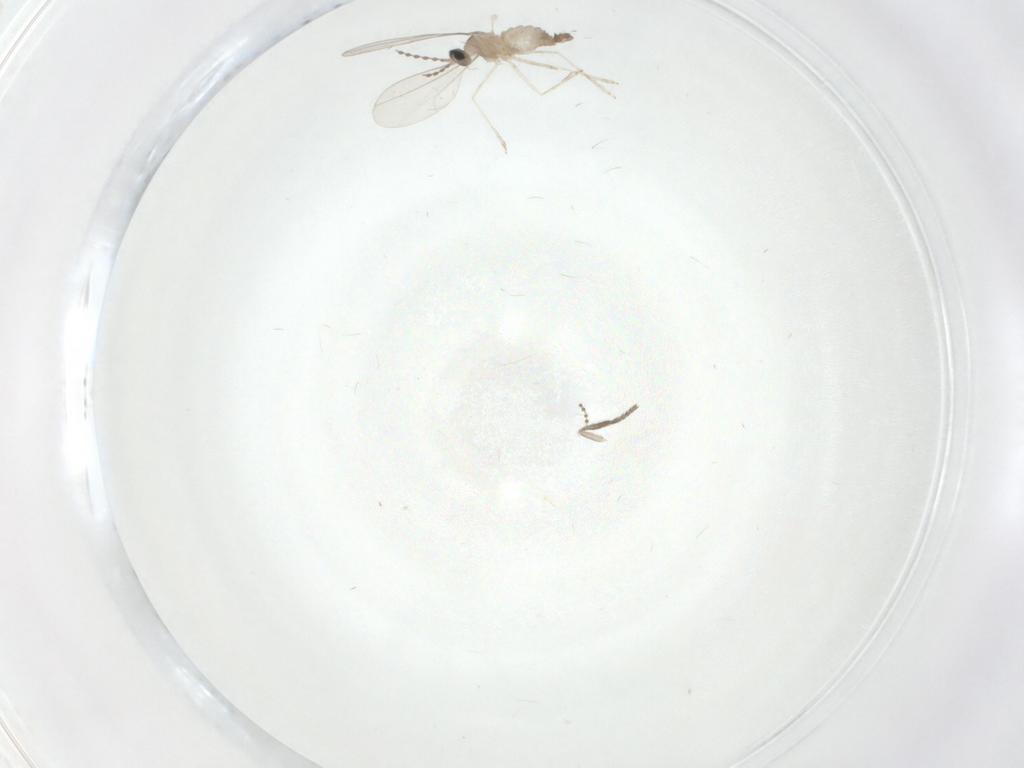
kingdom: Animalia
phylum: Arthropoda
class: Insecta
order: Diptera
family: Psychodidae
